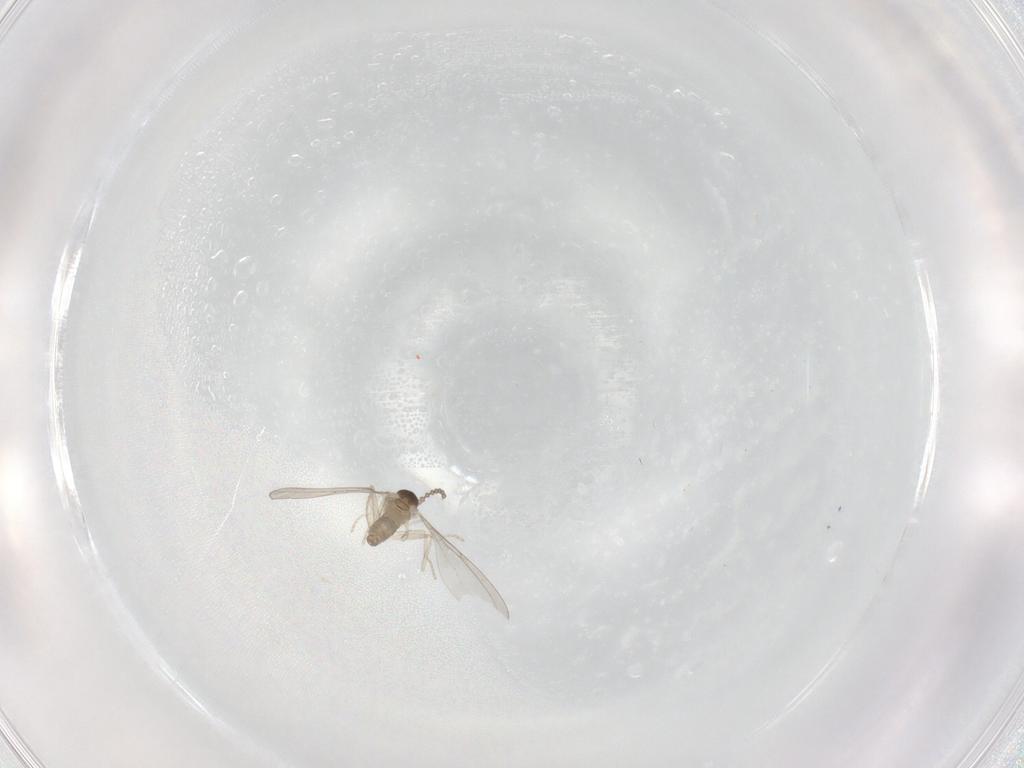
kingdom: Animalia
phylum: Arthropoda
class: Insecta
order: Diptera
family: Cecidomyiidae
